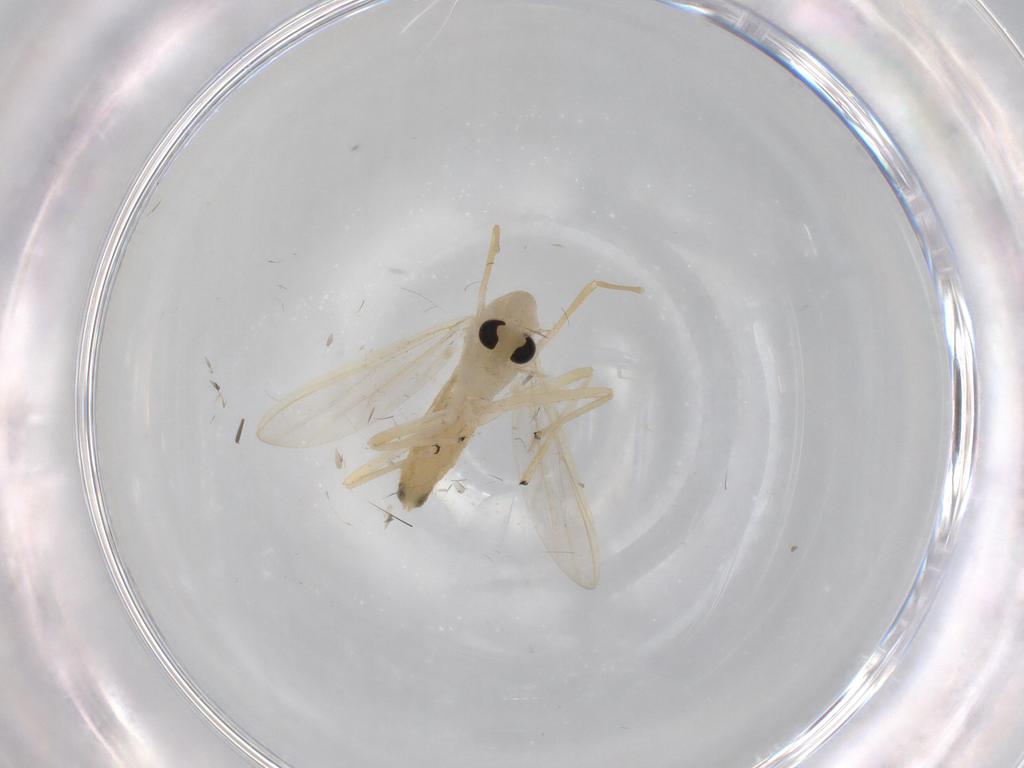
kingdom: Animalia
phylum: Arthropoda
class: Insecta
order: Diptera
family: Chironomidae
